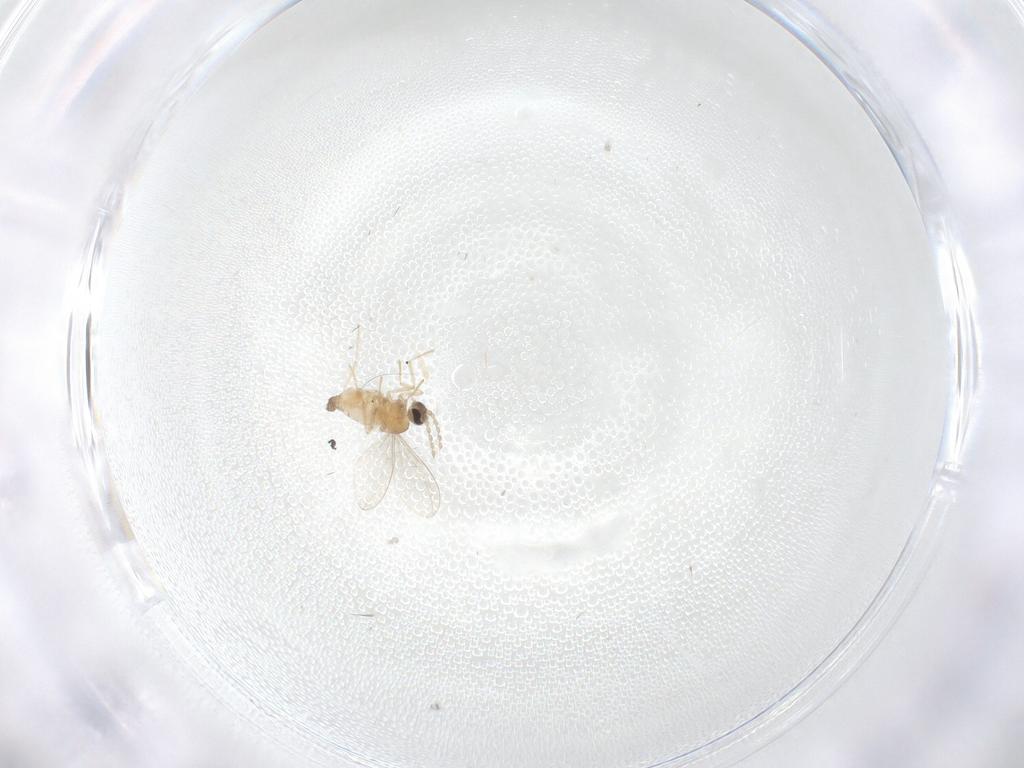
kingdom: Animalia
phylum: Arthropoda
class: Insecta
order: Diptera
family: Cecidomyiidae
